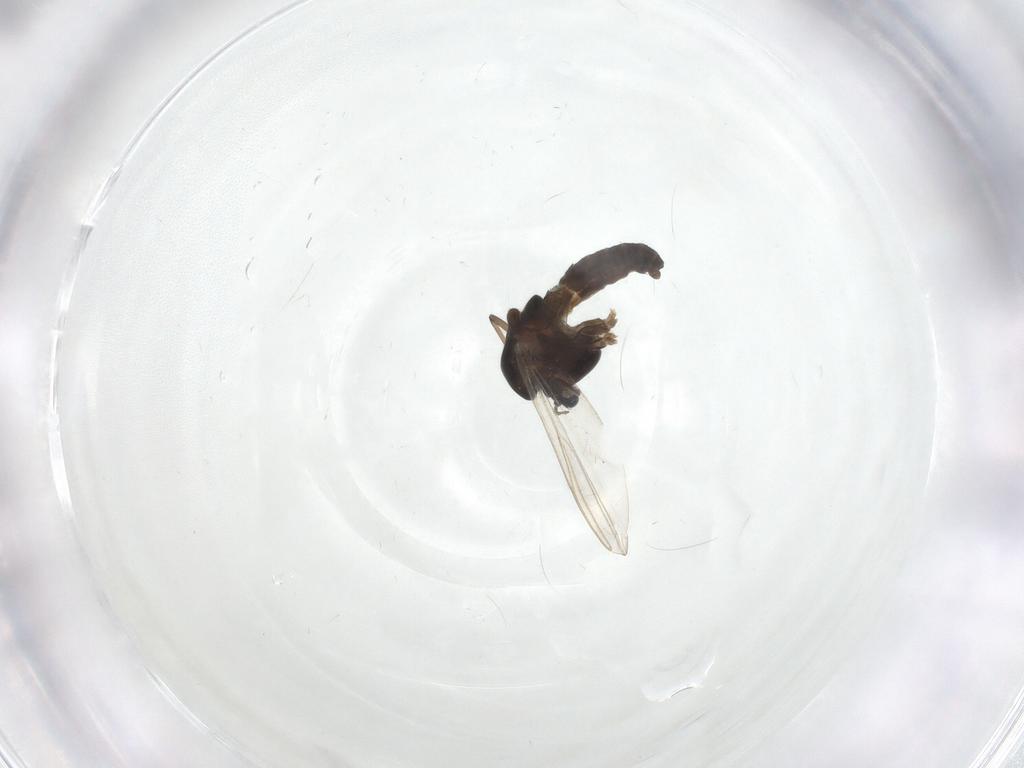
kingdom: Animalia
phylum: Arthropoda
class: Insecta
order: Diptera
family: Chironomidae
